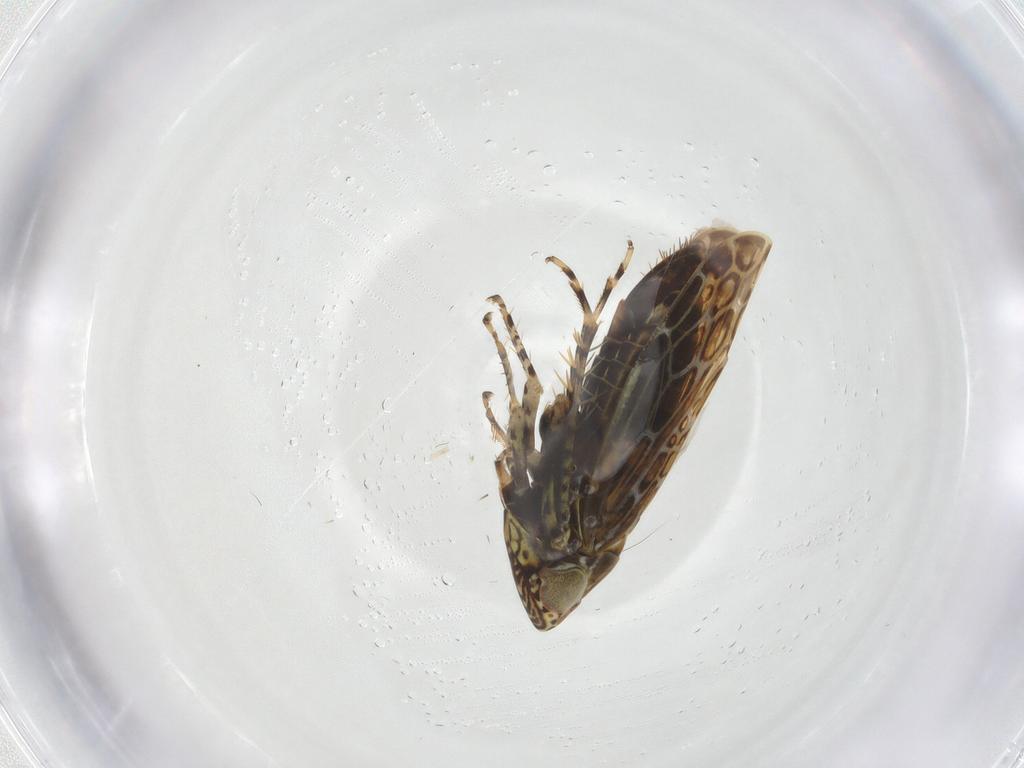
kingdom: Animalia
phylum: Arthropoda
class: Insecta
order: Hemiptera
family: Cicadellidae
